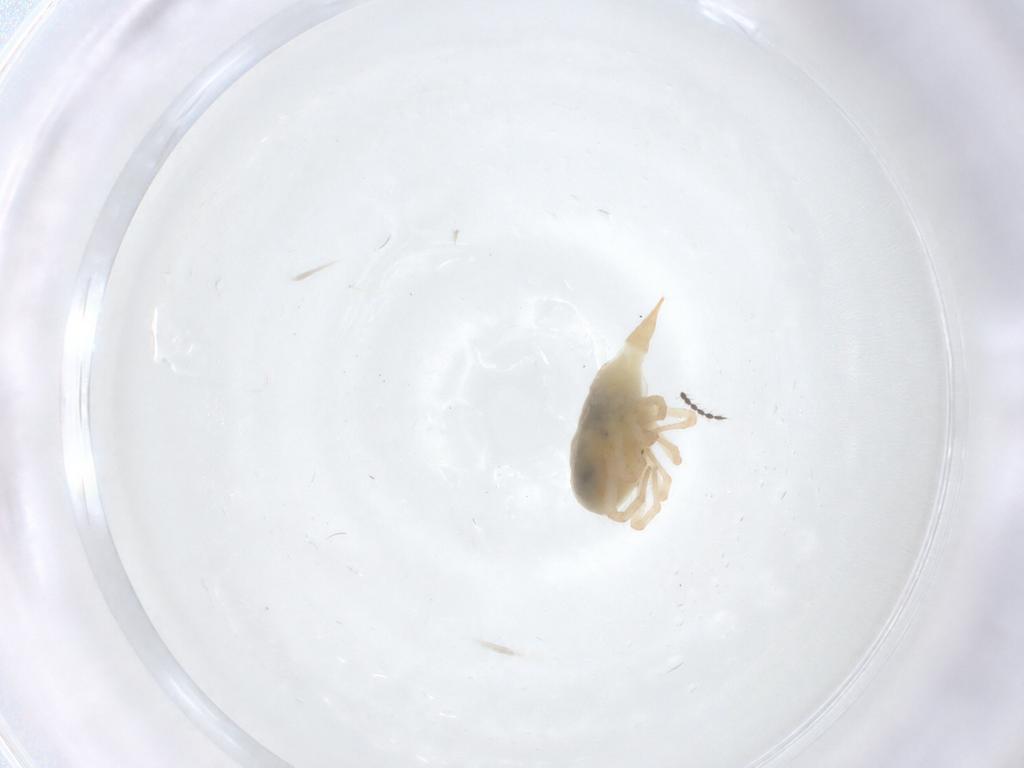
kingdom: Animalia
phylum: Arthropoda
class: Arachnida
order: Trombidiformes
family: Bdellidae
